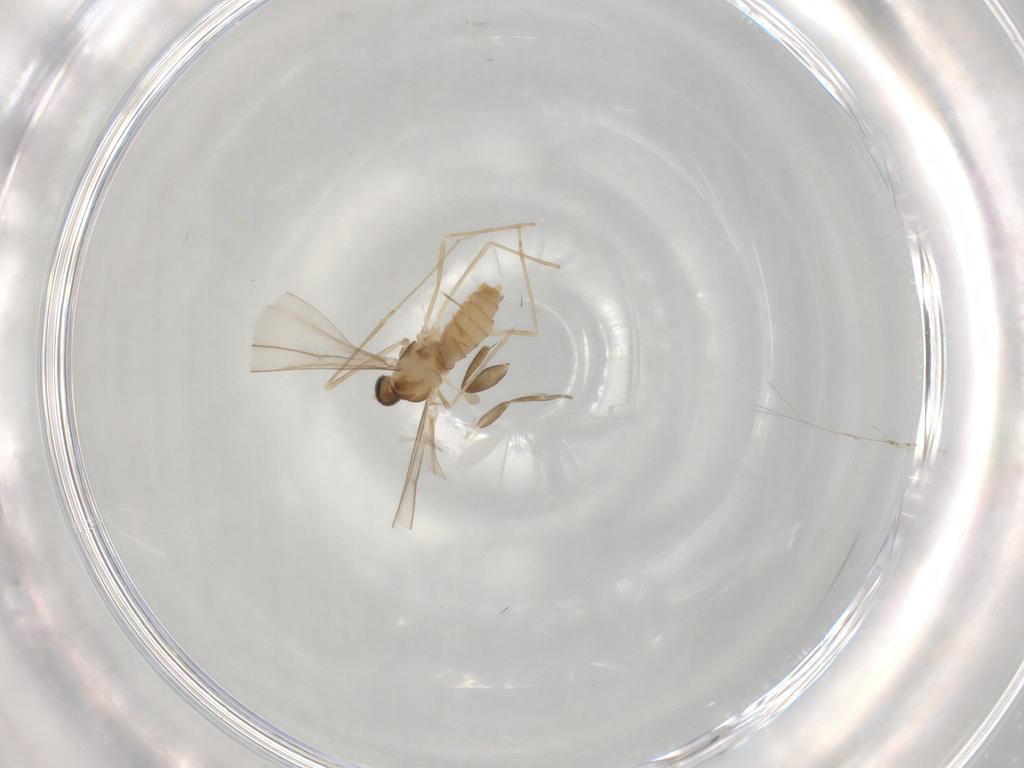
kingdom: Animalia
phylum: Arthropoda
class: Insecta
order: Diptera
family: Cecidomyiidae
